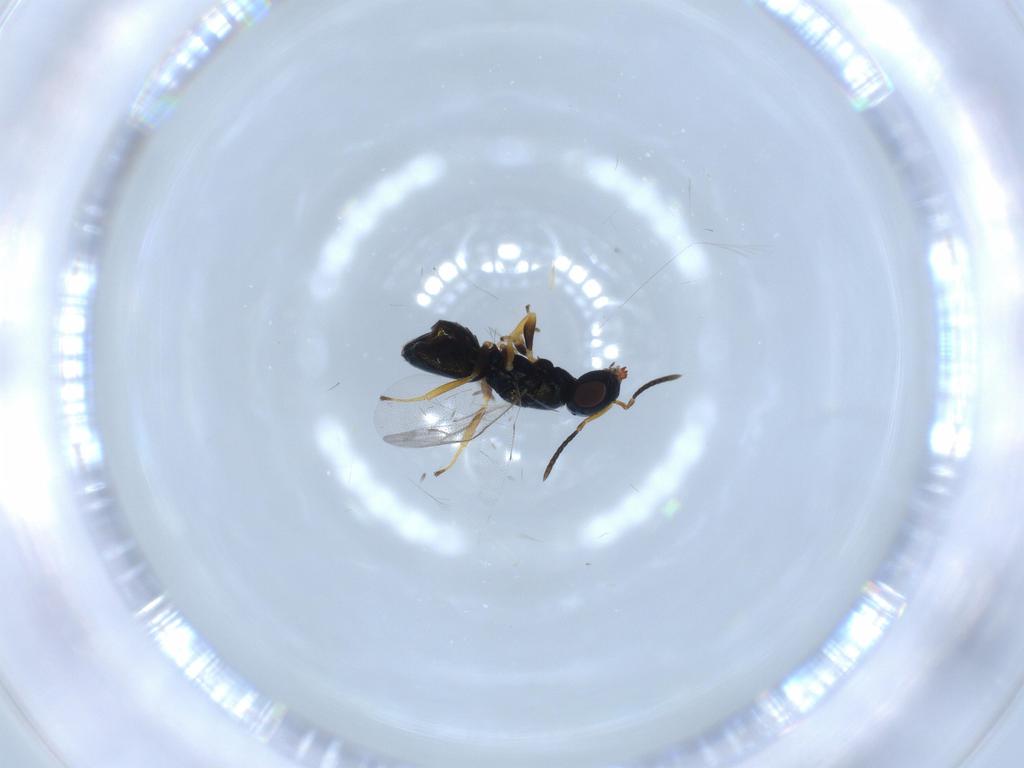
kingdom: Animalia
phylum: Arthropoda
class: Insecta
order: Hymenoptera
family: Pteromalidae
